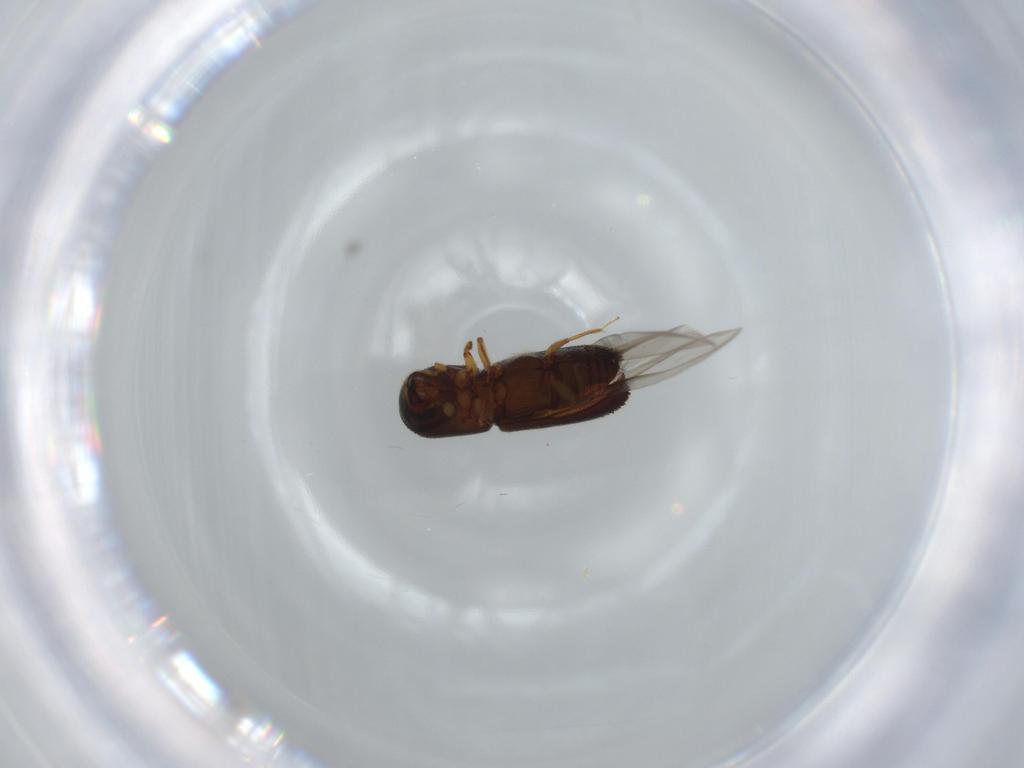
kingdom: Animalia
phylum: Arthropoda
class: Insecta
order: Coleoptera
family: Curculionidae
